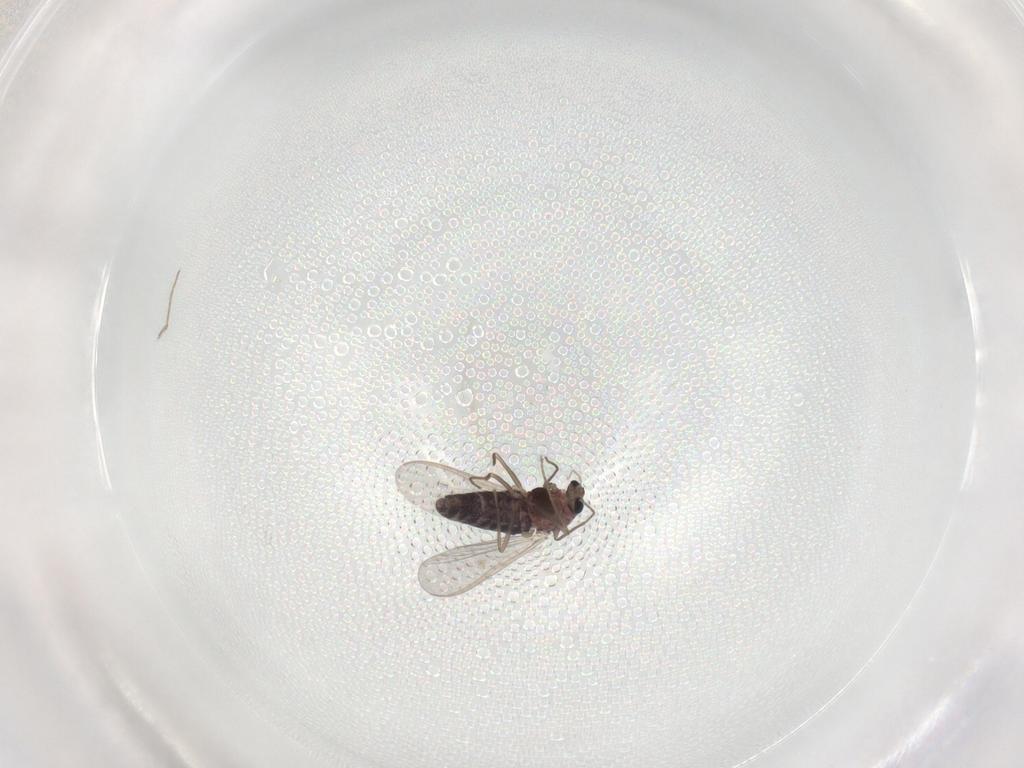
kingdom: Animalia
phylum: Arthropoda
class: Insecta
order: Diptera
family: Chironomidae
